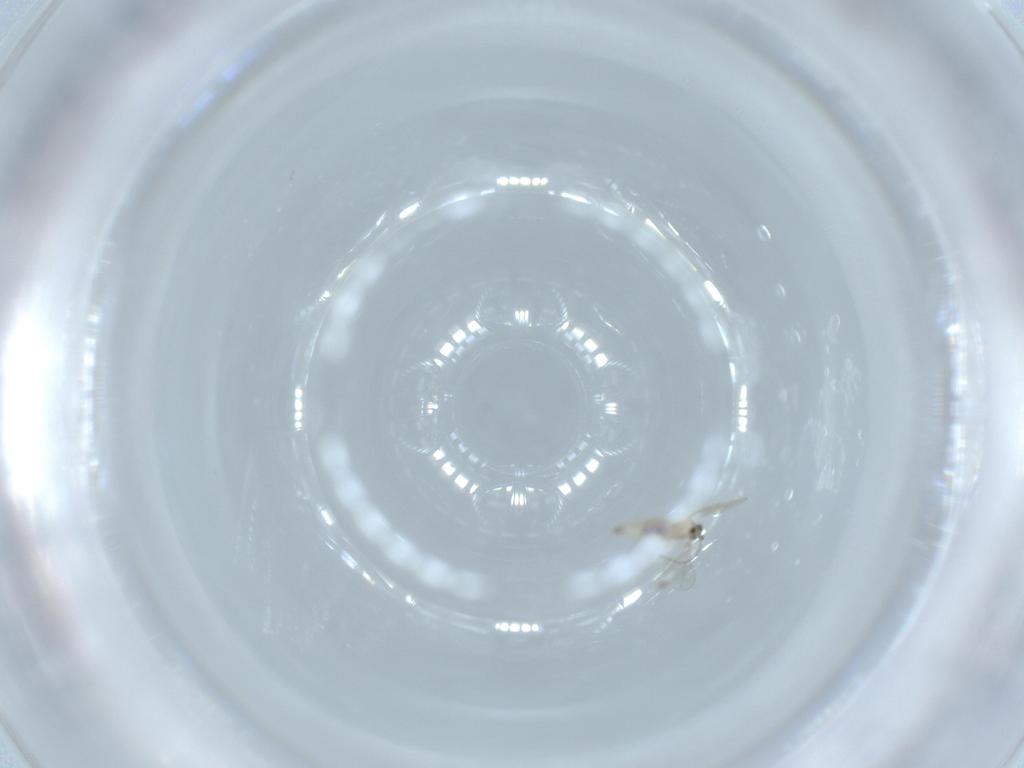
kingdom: Animalia
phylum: Arthropoda
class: Insecta
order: Diptera
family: Cecidomyiidae
